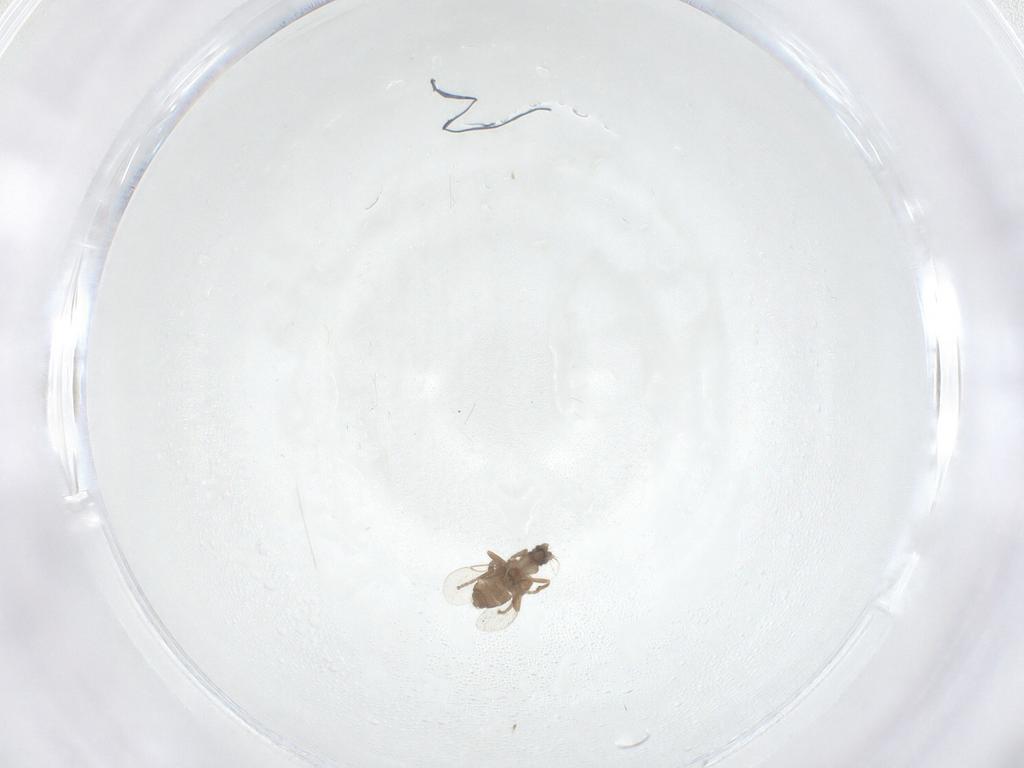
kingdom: Animalia
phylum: Arthropoda
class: Insecta
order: Diptera
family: Phoridae
